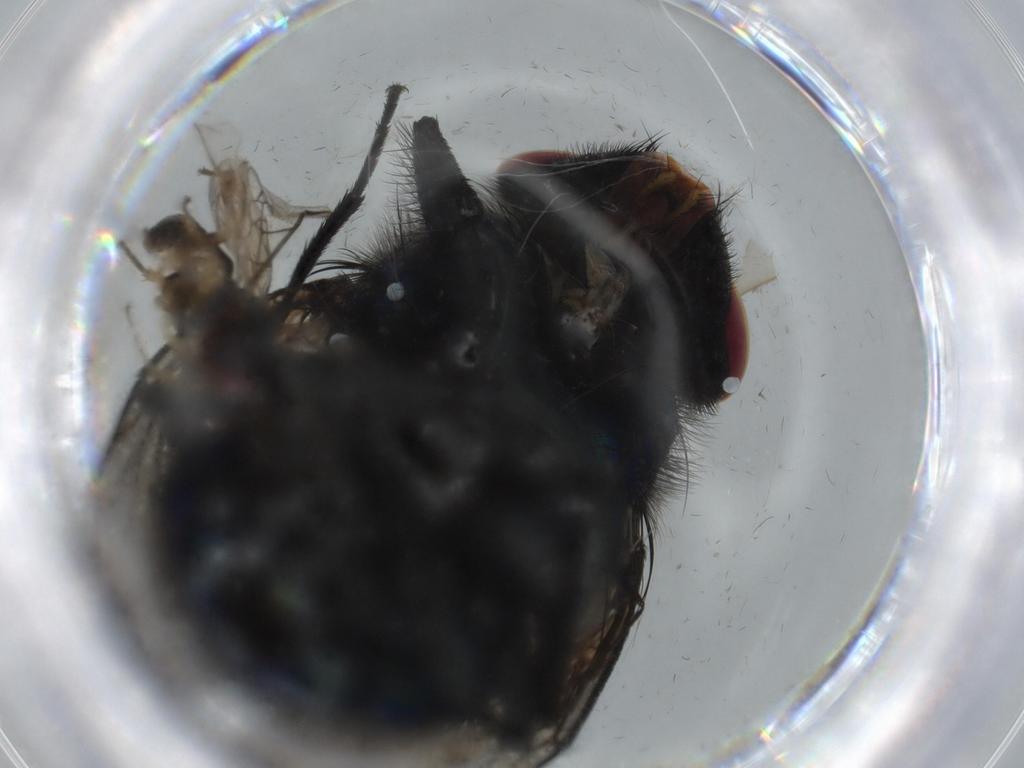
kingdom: Animalia
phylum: Arthropoda
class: Insecta
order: Diptera
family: Calliphoridae
